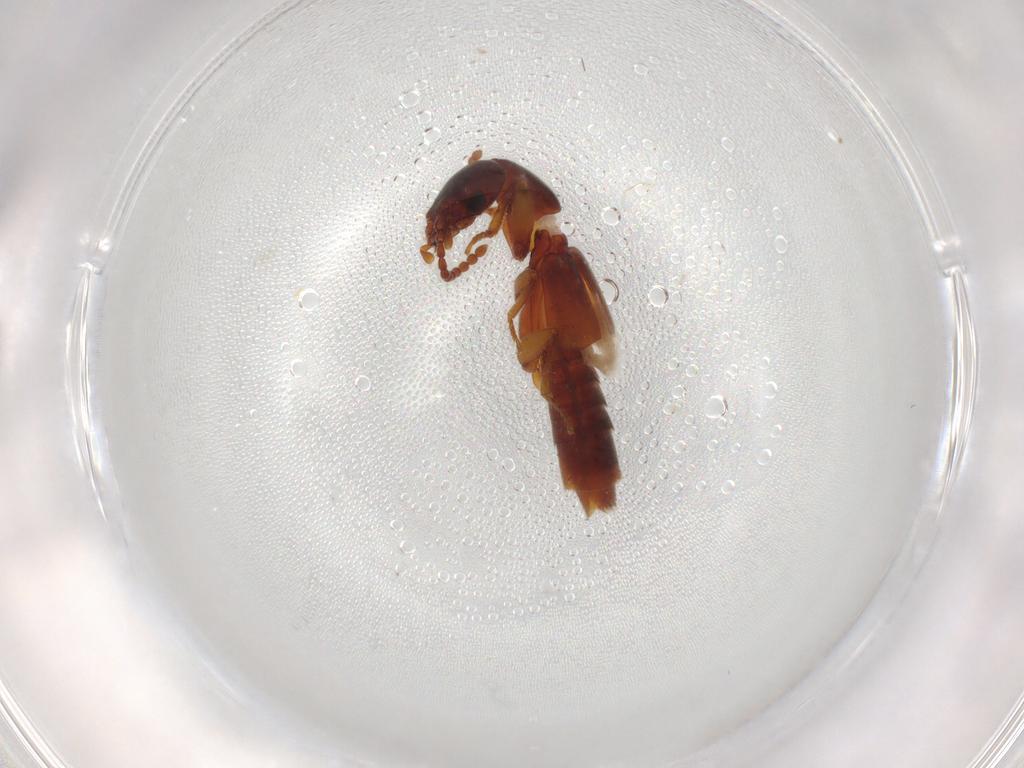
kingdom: Animalia
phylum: Arthropoda
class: Insecta
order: Coleoptera
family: Staphylinidae
